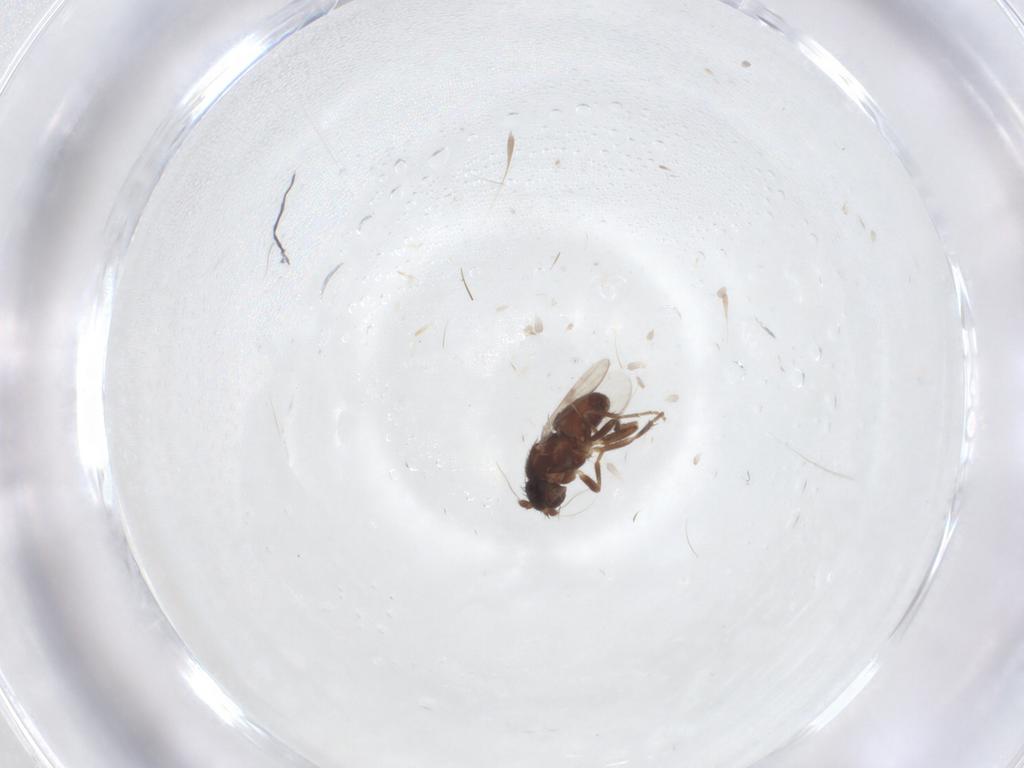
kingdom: Animalia
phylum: Arthropoda
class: Insecta
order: Diptera
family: Sphaeroceridae
